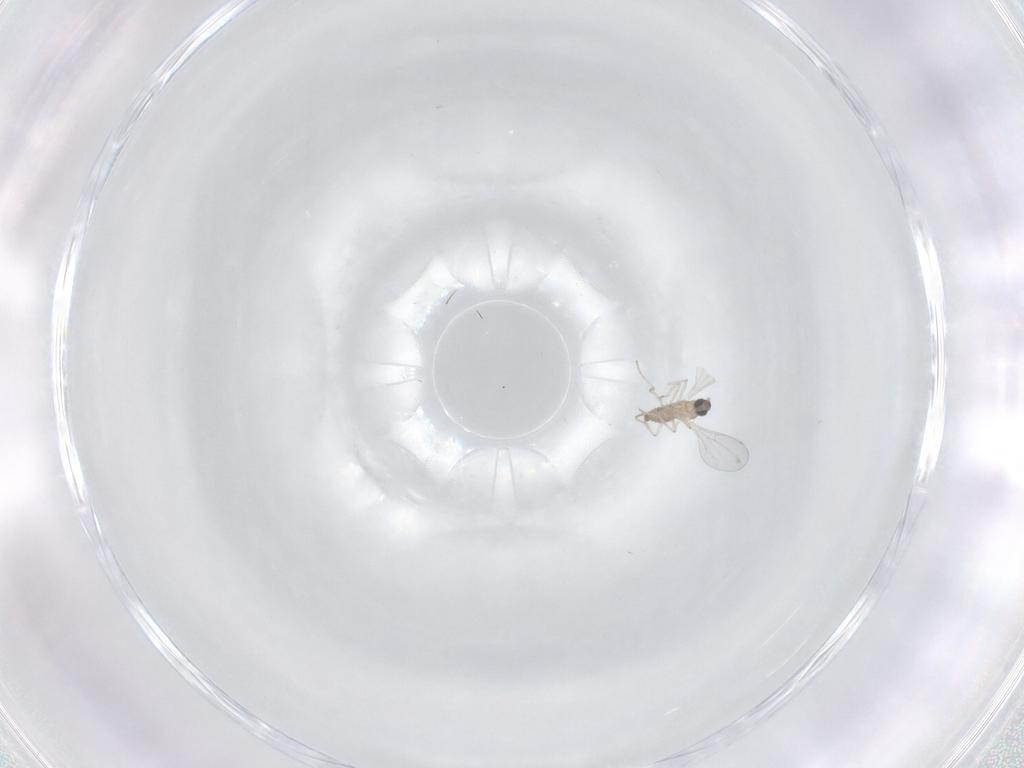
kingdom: Animalia
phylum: Arthropoda
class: Insecta
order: Diptera
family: Cecidomyiidae
